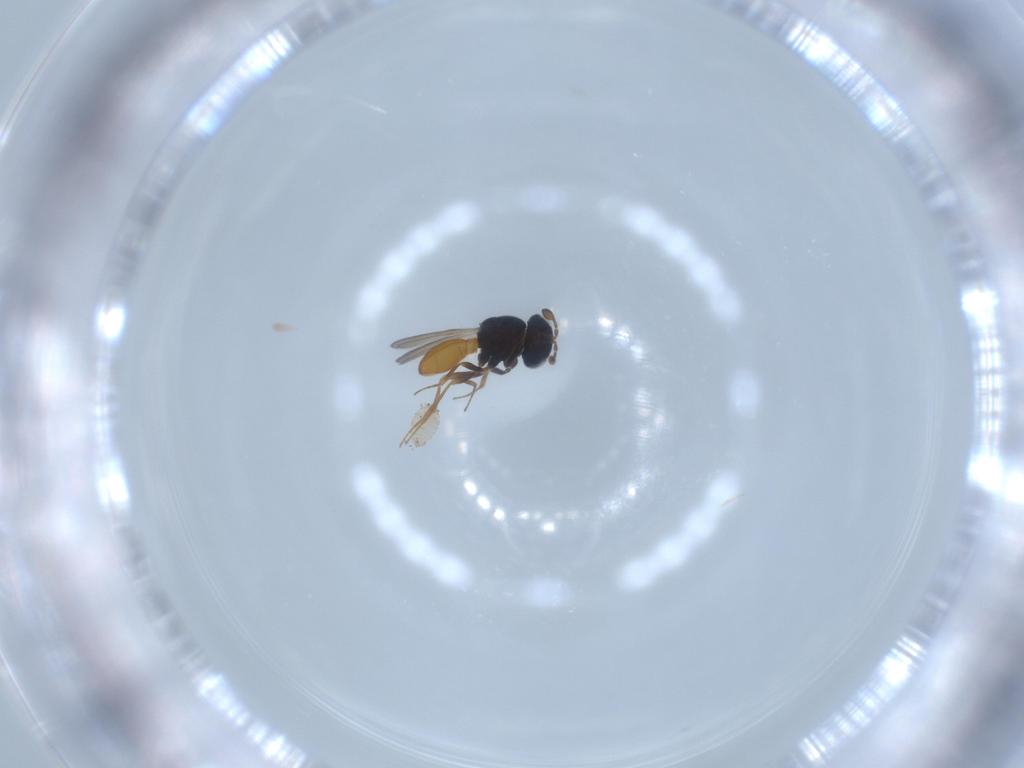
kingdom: Animalia
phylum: Arthropoda
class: Insecta
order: Hymenoptera
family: Scelionidae
